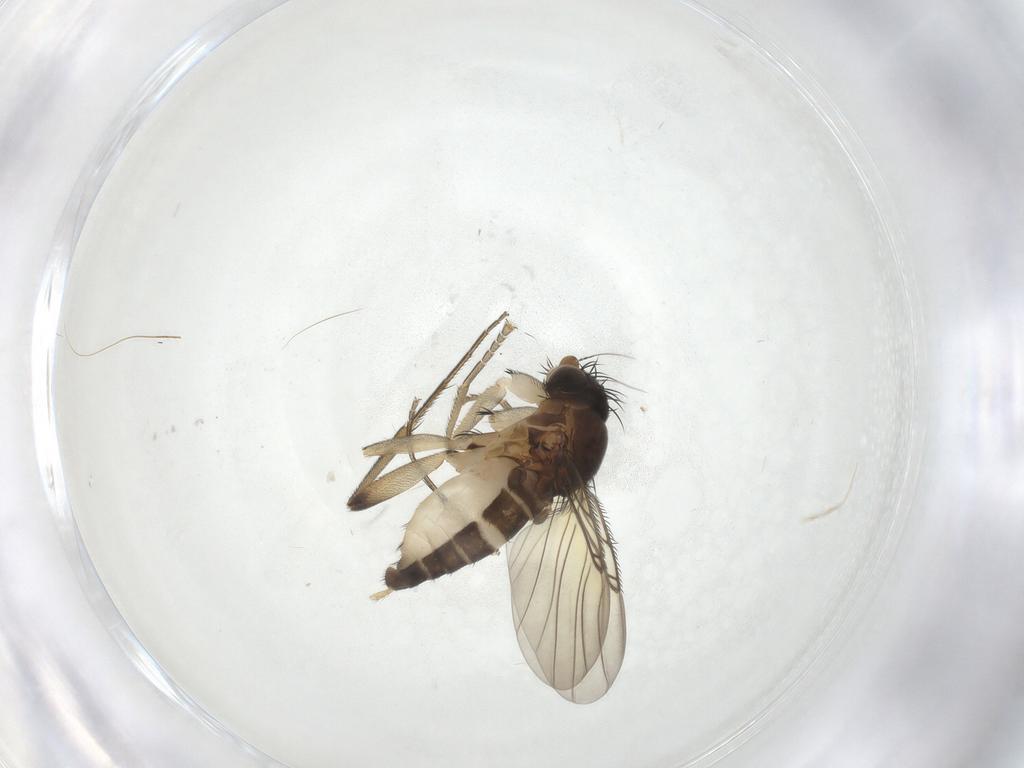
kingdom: Animalia
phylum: Arthropoda
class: Insecta
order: Diptera
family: Phoridae
